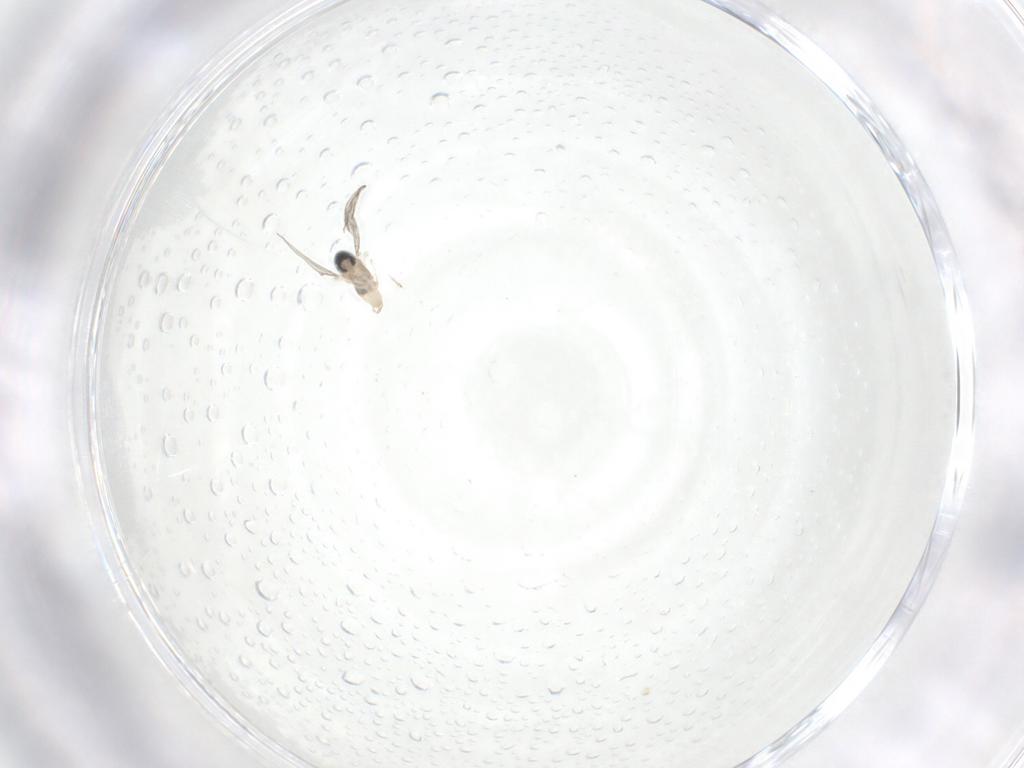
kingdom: Animalia
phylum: Arthropoda
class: Insecta
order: Diptera
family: Cecidomyiidae
